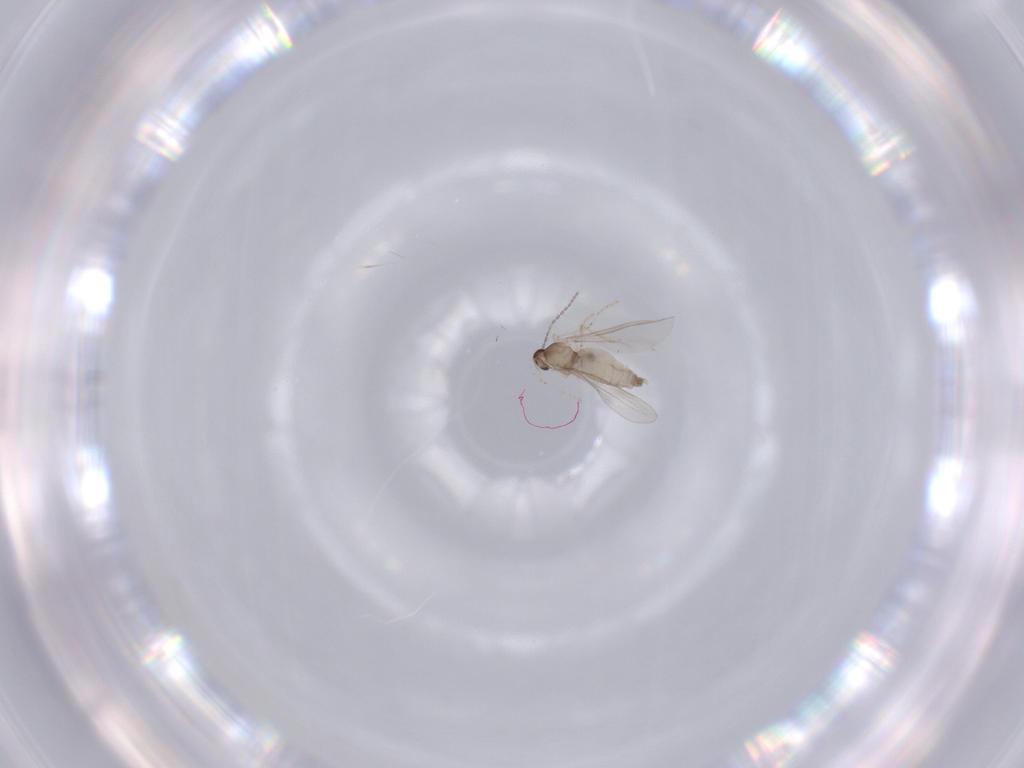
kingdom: Animalia
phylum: Arthropoda
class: Insecta
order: Diptera
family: Cecidomyiidae
